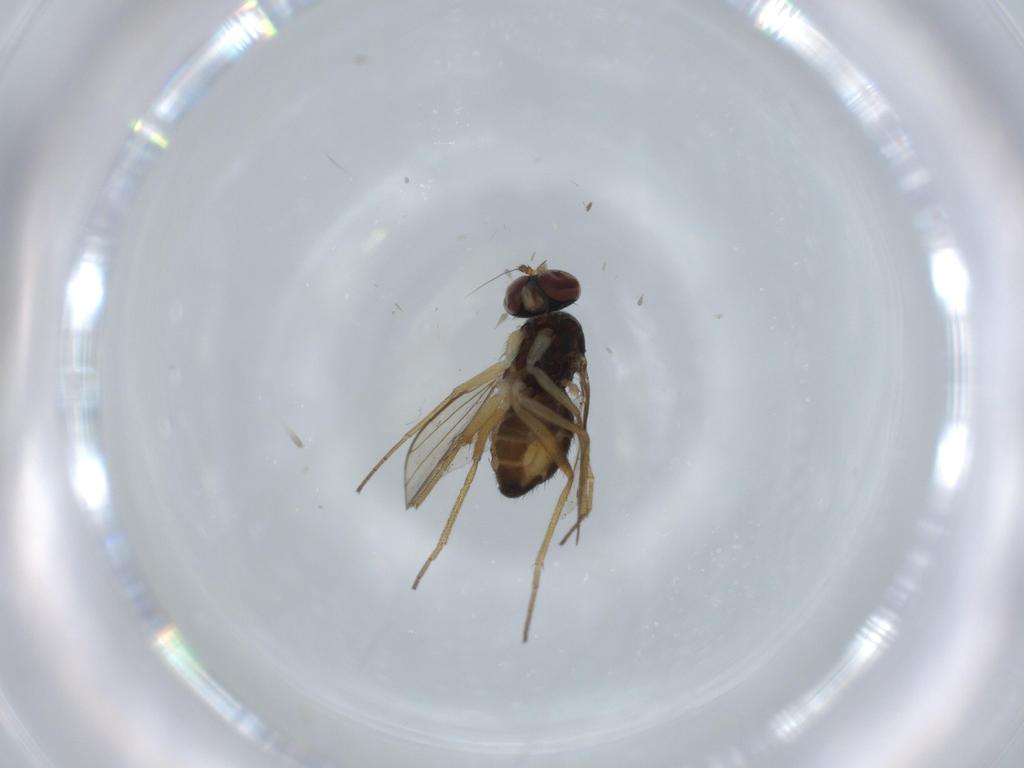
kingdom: Animalia
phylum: Arthropoda
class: Insecta
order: Diptera
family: Dolichopodidae
